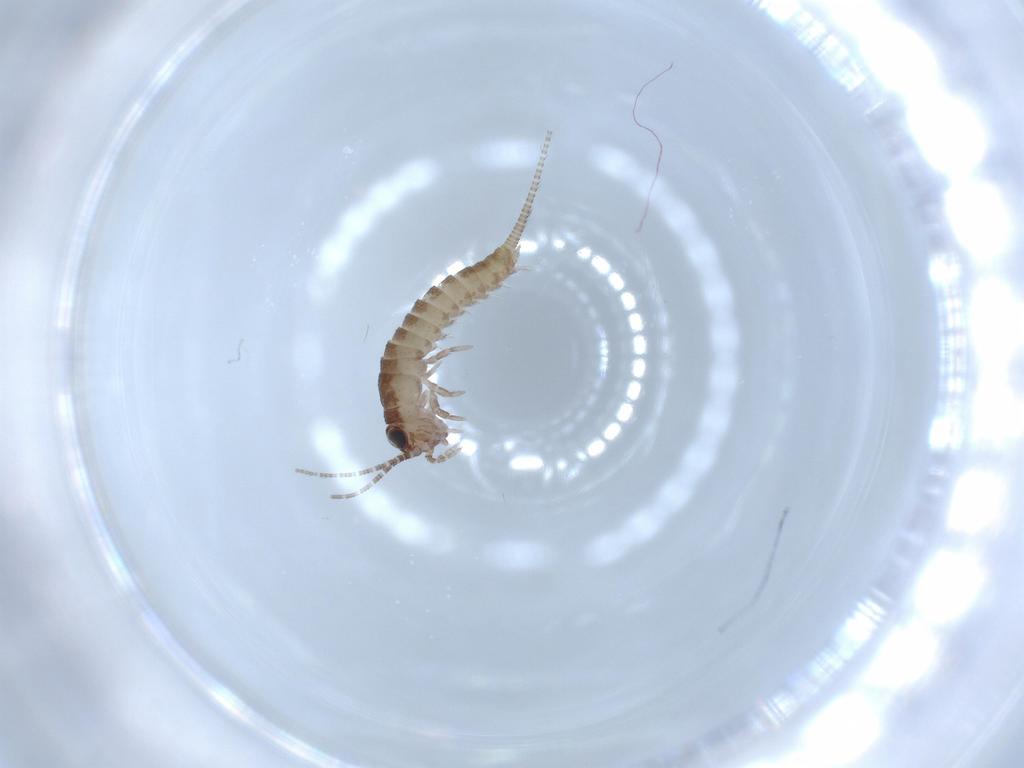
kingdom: Animalia
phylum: Arthropoda
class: Insecta
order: Archaeognatha
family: Machilidae
